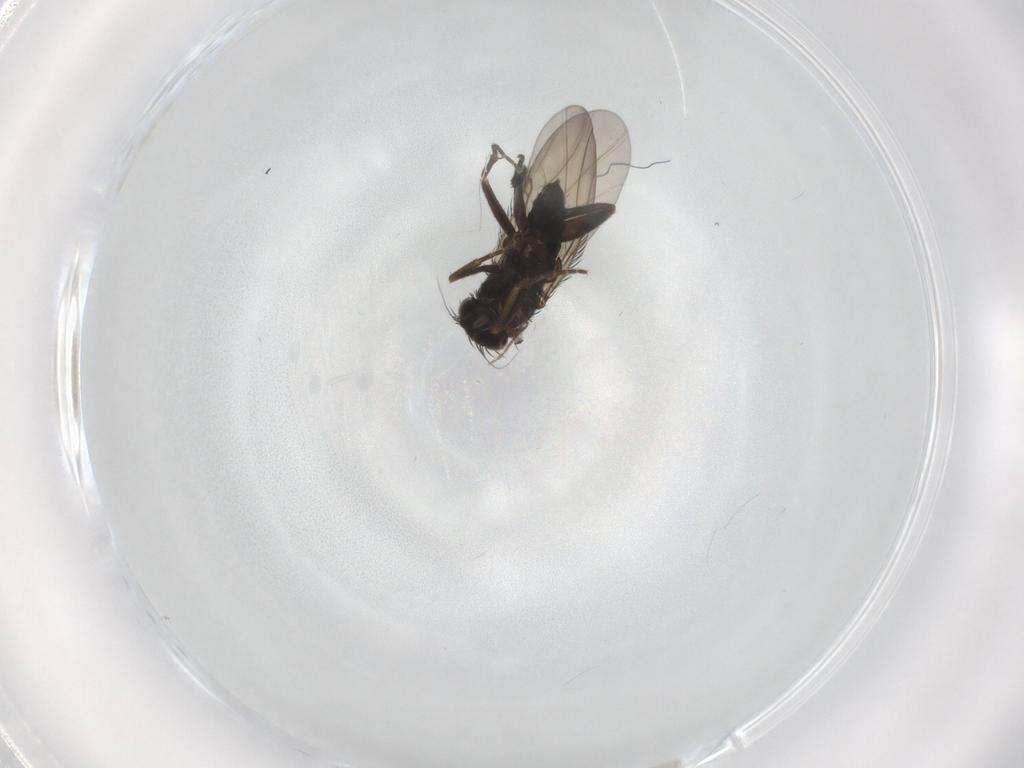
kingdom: Animalia
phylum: Arthropoda
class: Insecta
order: Diptera
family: Phoridae
